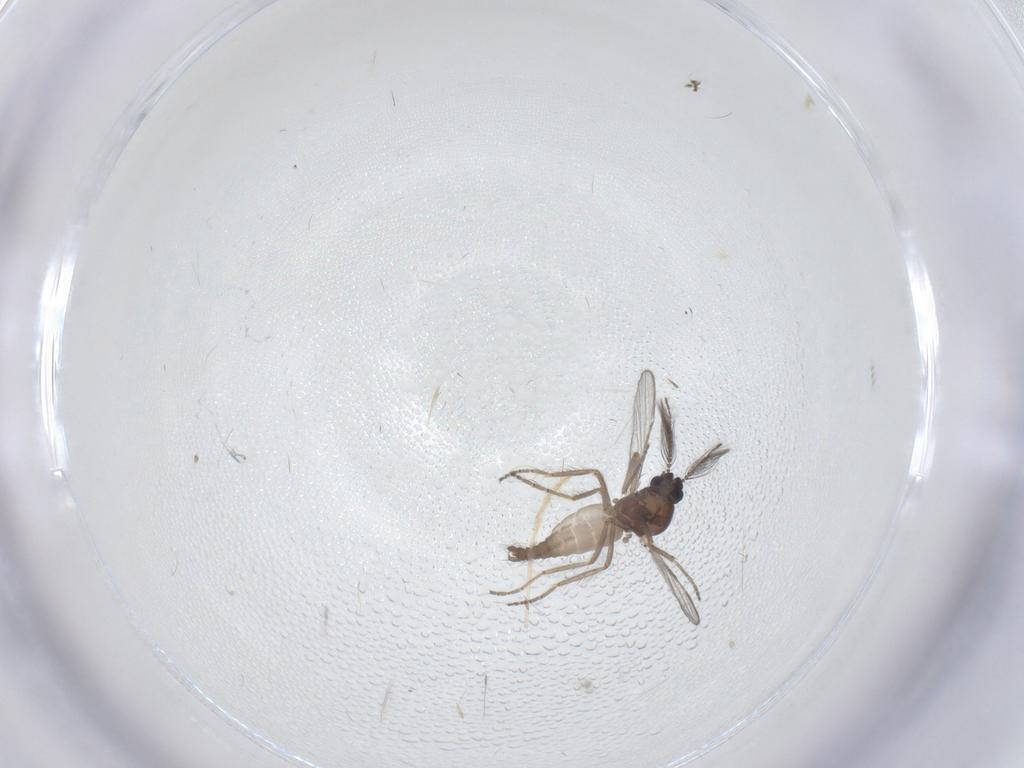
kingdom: Animalia
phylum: Arthropoda
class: Insecta
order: Diptera
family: Ceratopogonidae
